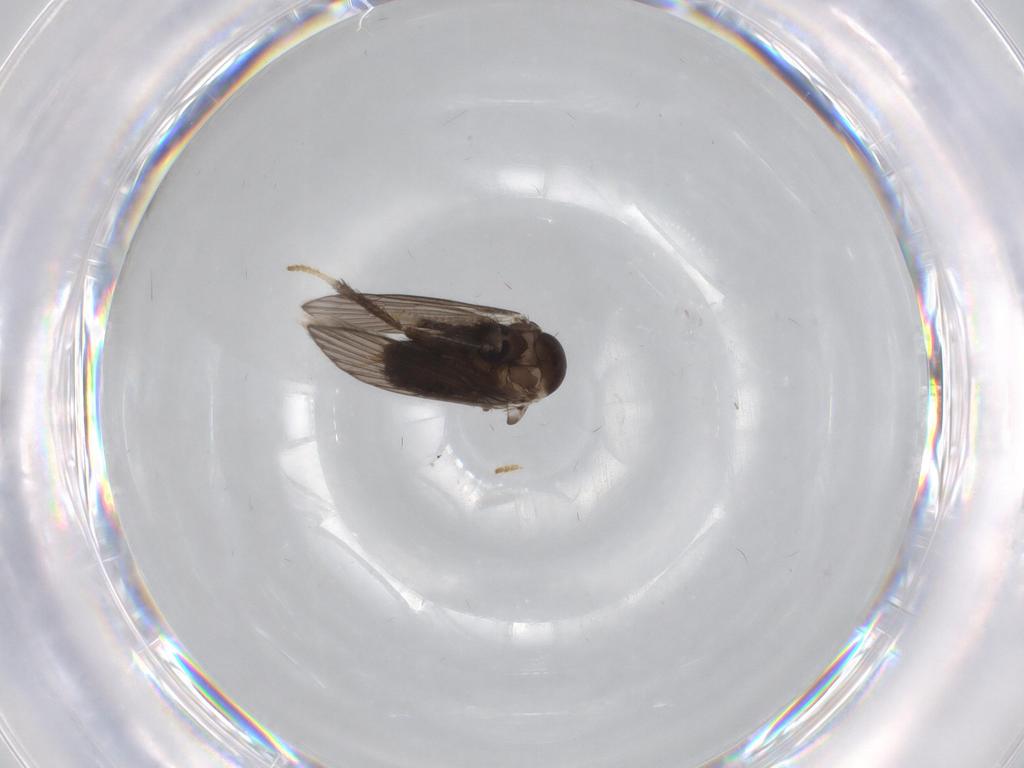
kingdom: Animalia
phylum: Arthropoda
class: Insecta
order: Diptera
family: Psychodidae
